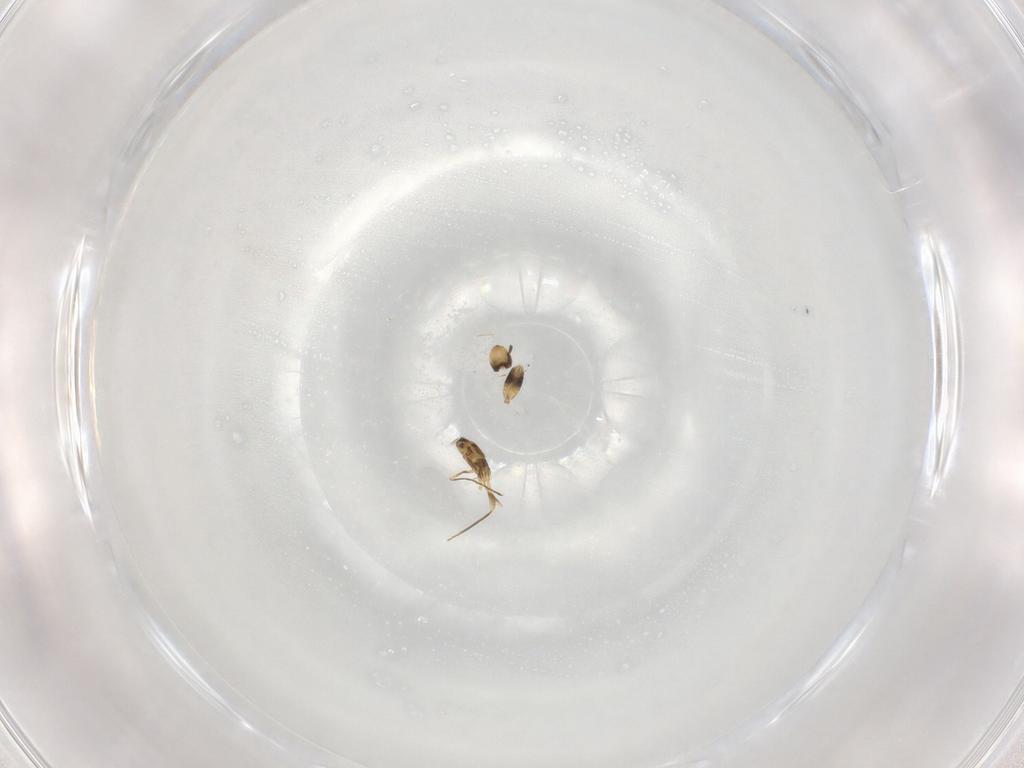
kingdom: Animalia
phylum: Arthropoda
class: Insecta
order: Hymenoptera
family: Mymaridae
